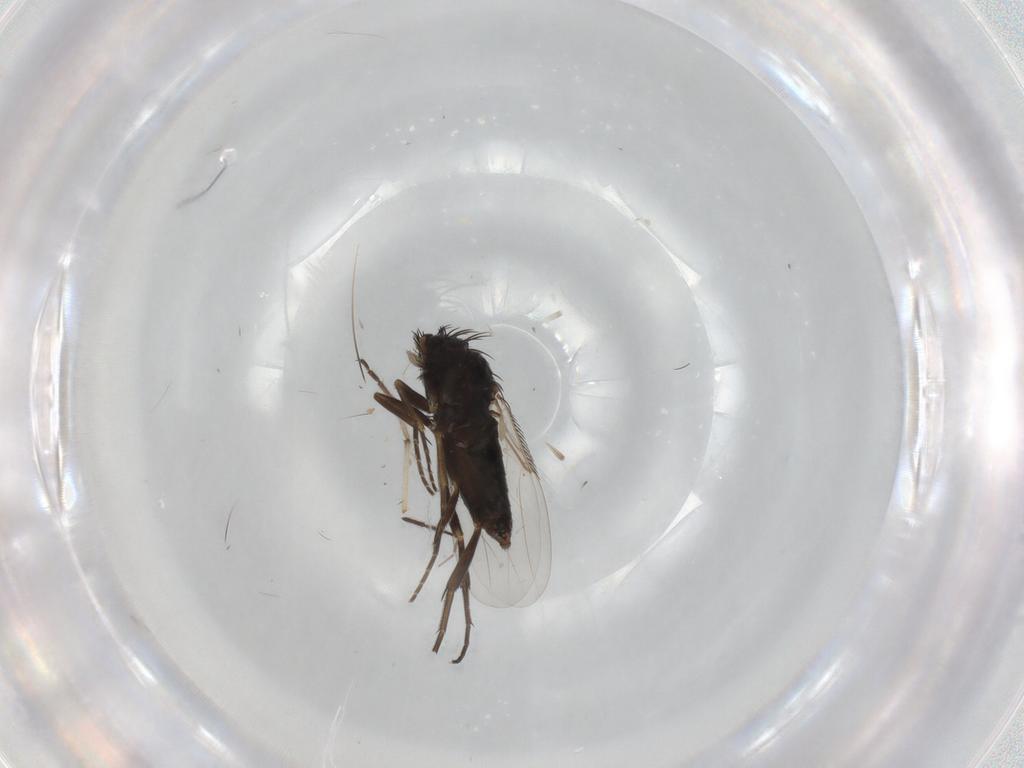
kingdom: Animalia
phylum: Arthropoda
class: Insecta
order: Diptera
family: Phoridae
